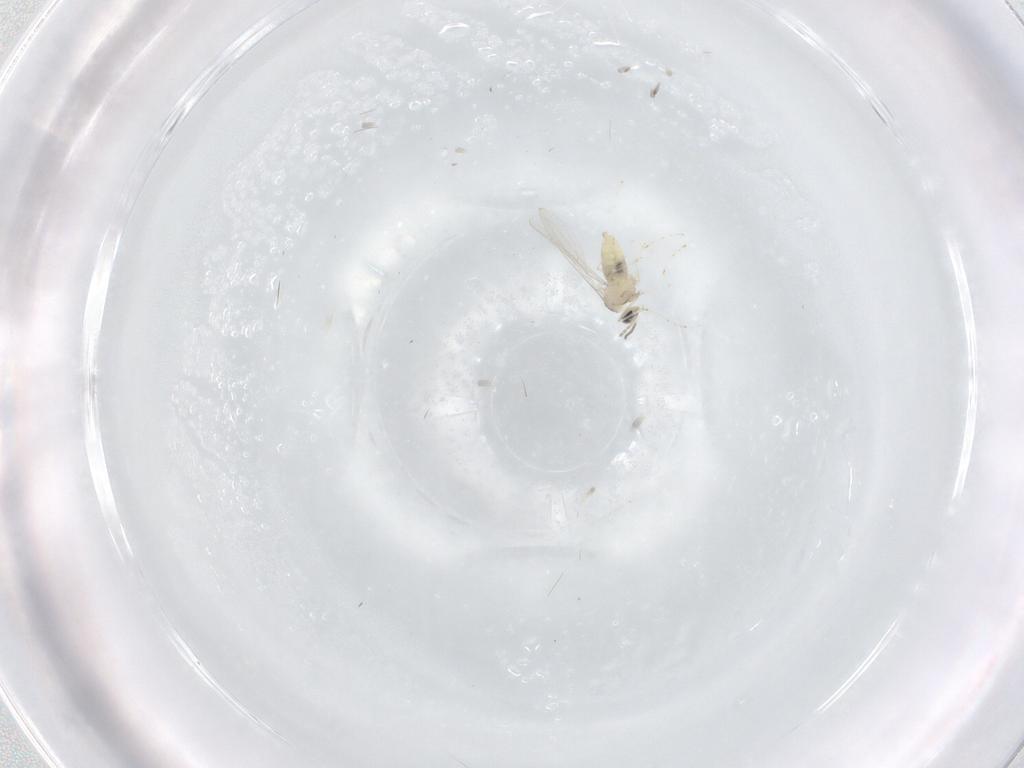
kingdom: Animalia
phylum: Arthropoda
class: Insecta
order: Diptera
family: Cecidomyiidae
